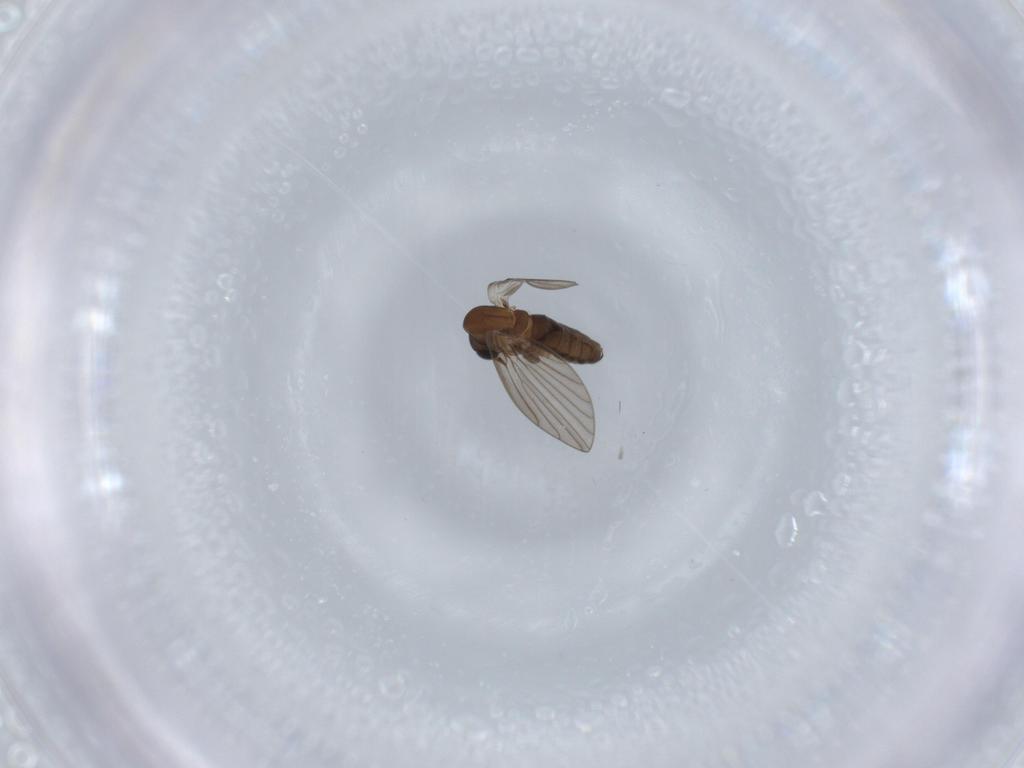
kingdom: Animalia
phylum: Arthropoda
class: Insecta
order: Diptera
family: Psychodidae
